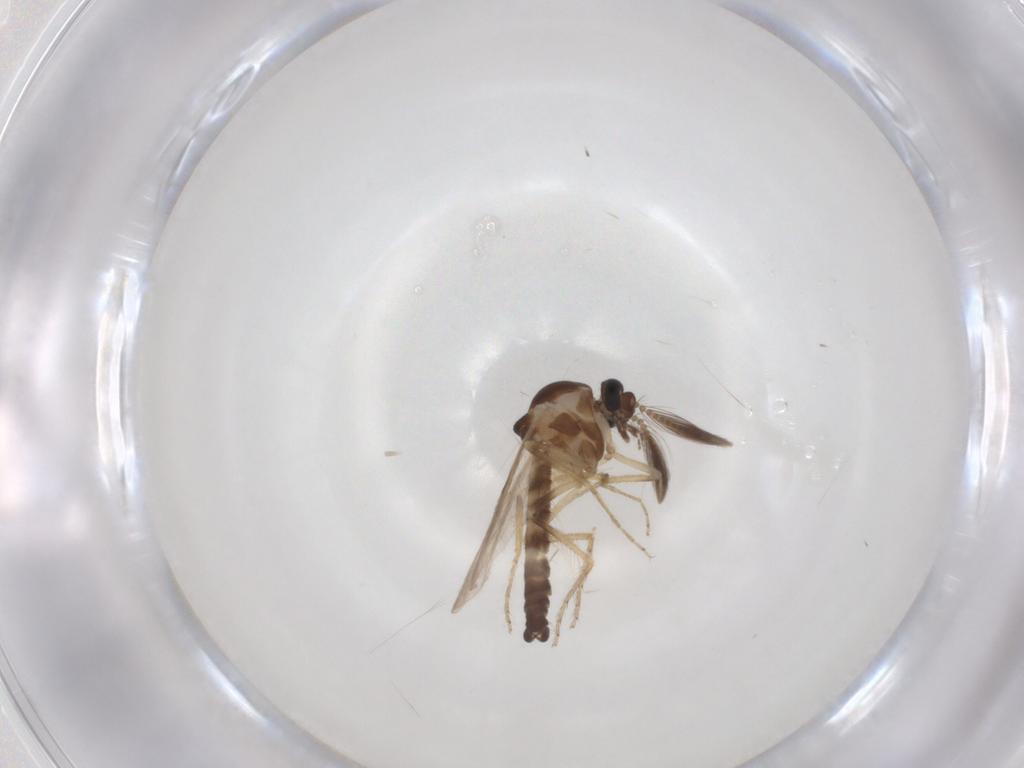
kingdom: Animalia
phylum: Arthropoda
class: Insecta
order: Diptera
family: Ceratopogonidae
